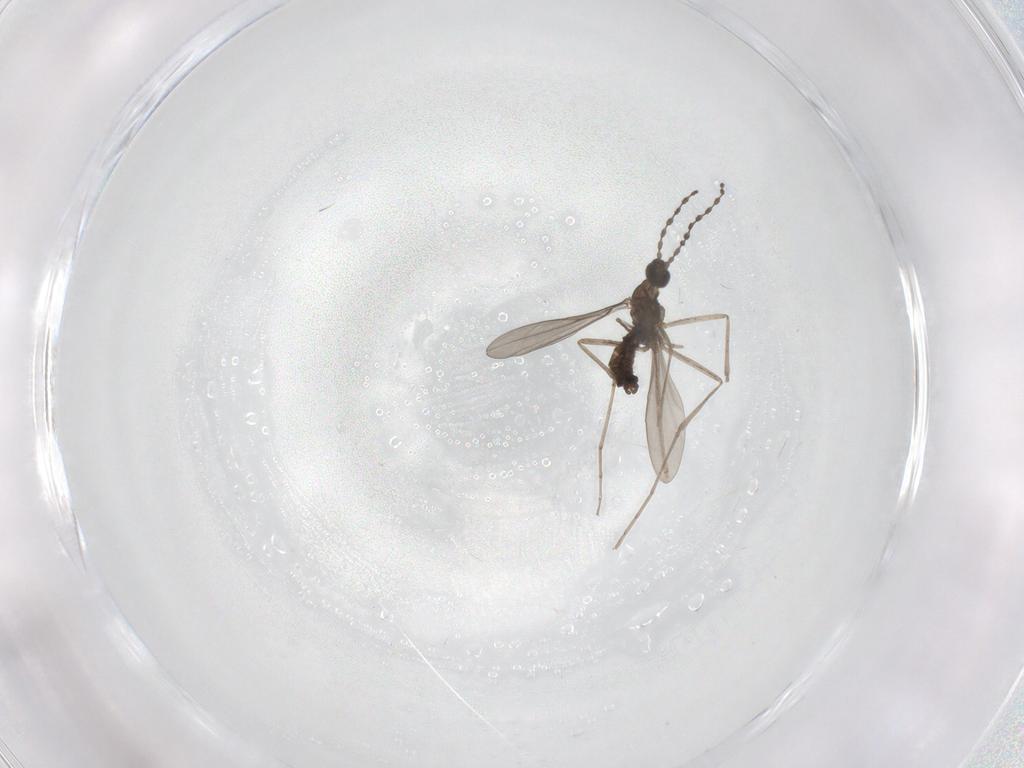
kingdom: Animalia
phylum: Arthropoda
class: Insecta
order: Diptera
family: Cecidomyiidae
